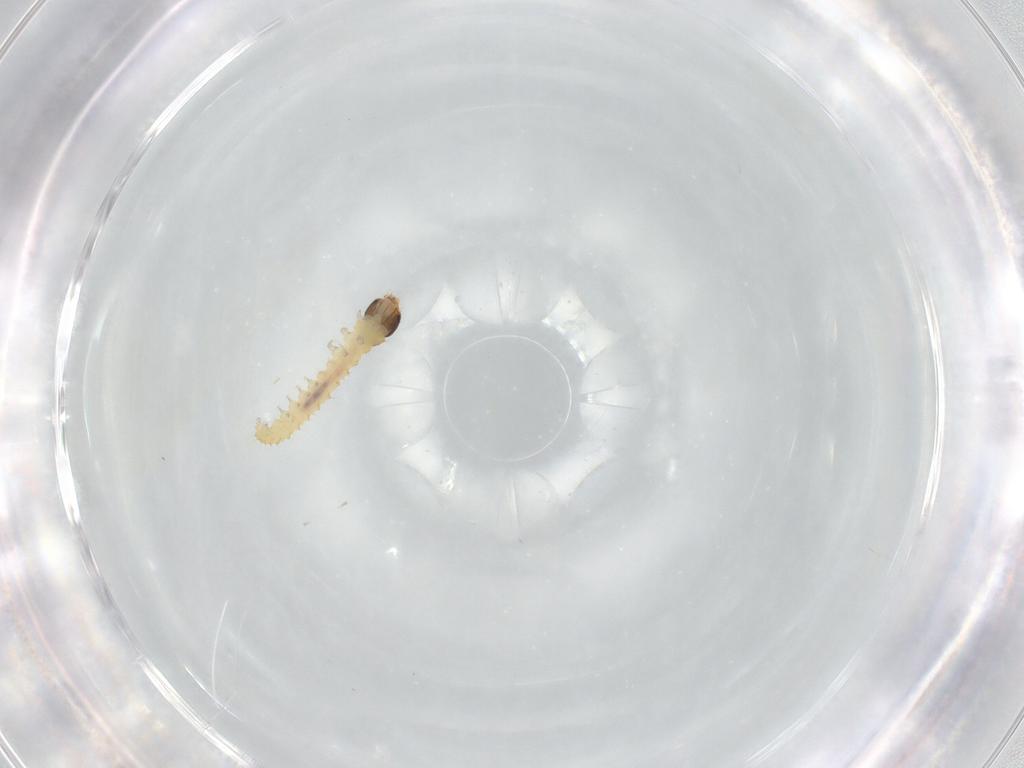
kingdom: Animalia
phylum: Arthropoda
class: Insecta
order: Lepidoptera
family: Crambidae
